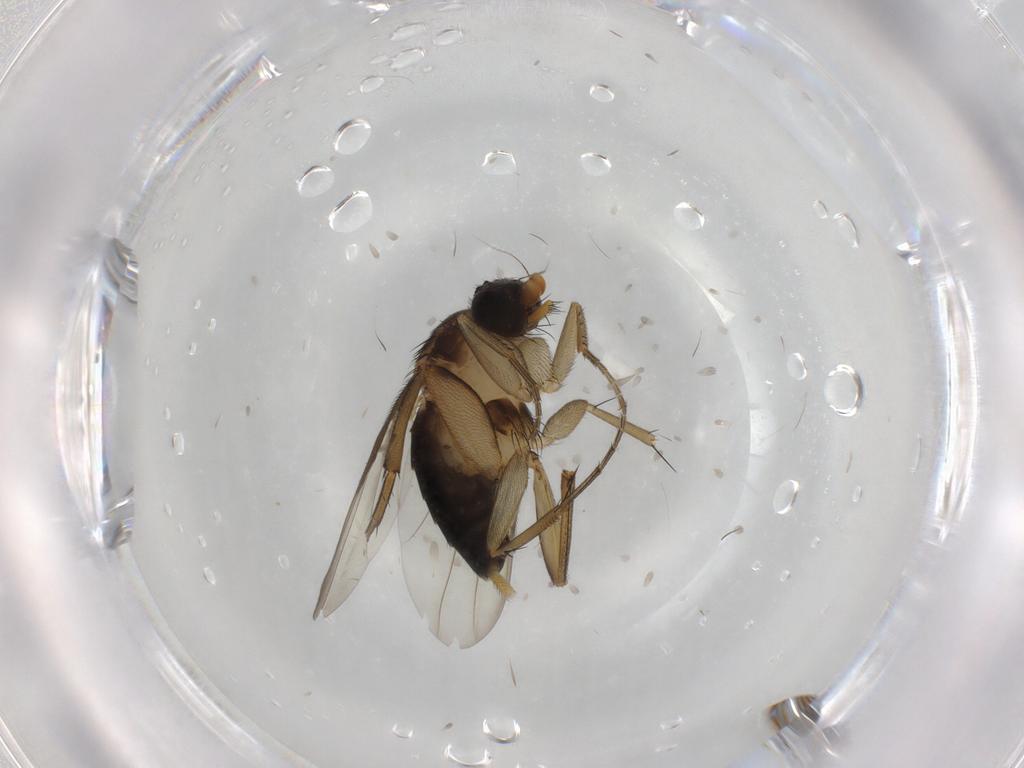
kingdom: Animalia
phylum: Arthropoda
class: Insecta
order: Diptera
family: Phoridae
